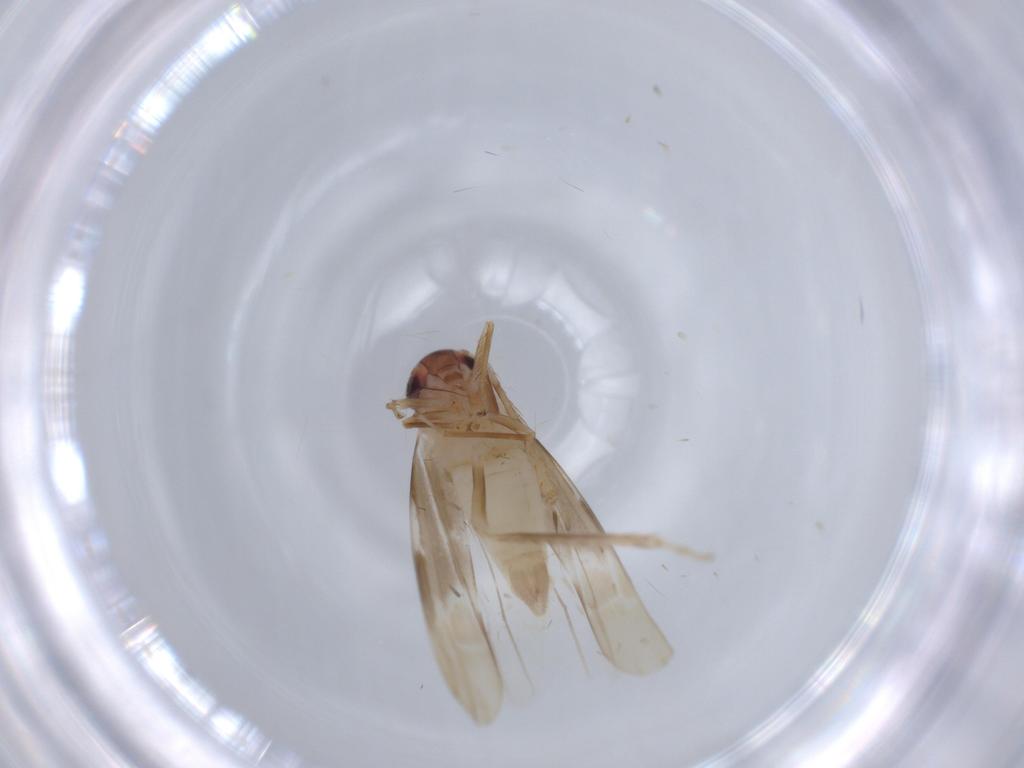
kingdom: Animalia
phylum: Arthropoda
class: Insecta
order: Hemiptera
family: Cicadellidae
